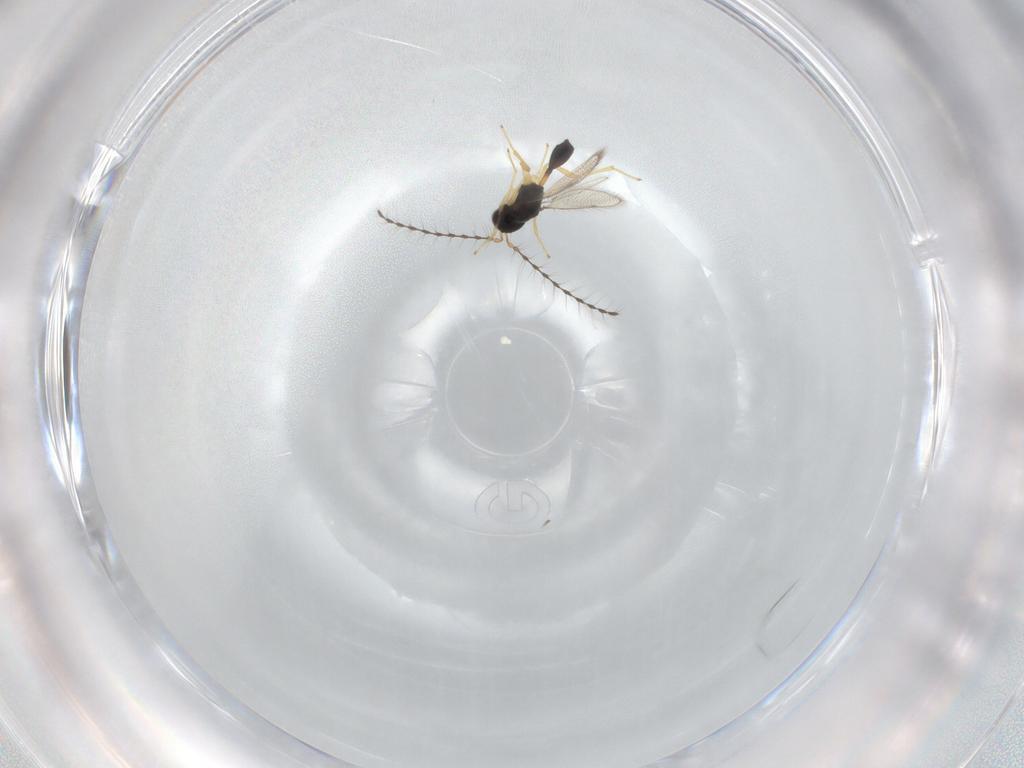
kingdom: Animalia
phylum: Arthropoda
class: Insecta
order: Hymenoptera
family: Diparidae
